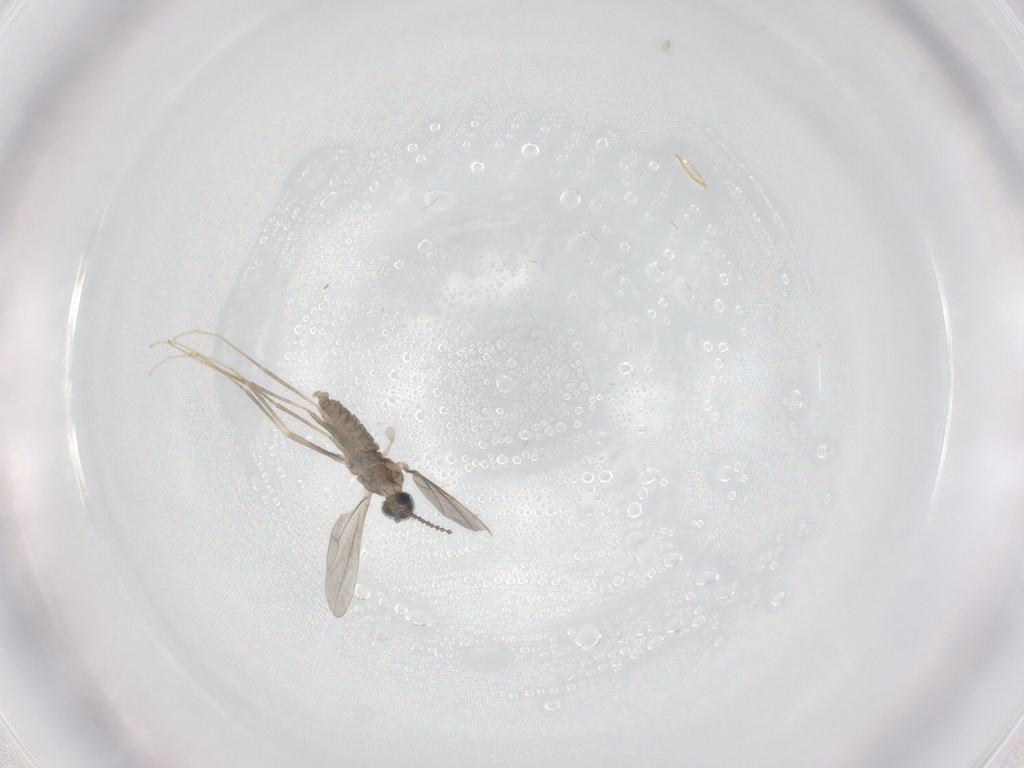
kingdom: Animalia
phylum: Arthropoda
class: Insecta
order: Diptera
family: Cecidomyiidae
